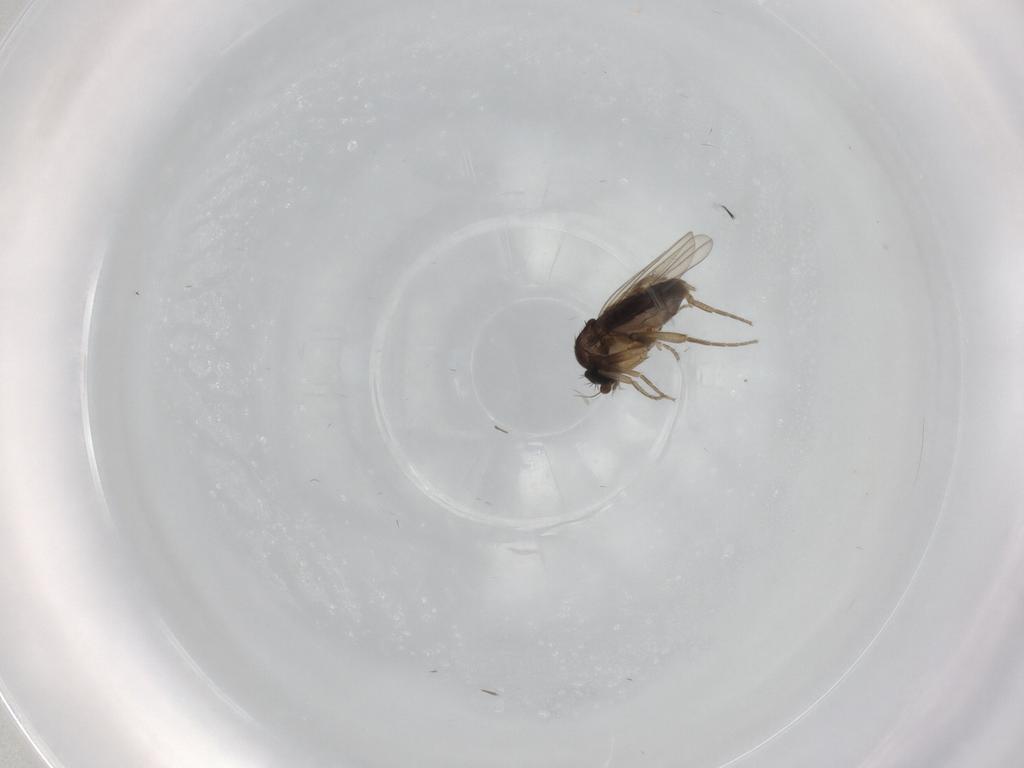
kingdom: Animalia
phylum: Arthropoda
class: Insecta
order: Diptera
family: Phoridae
